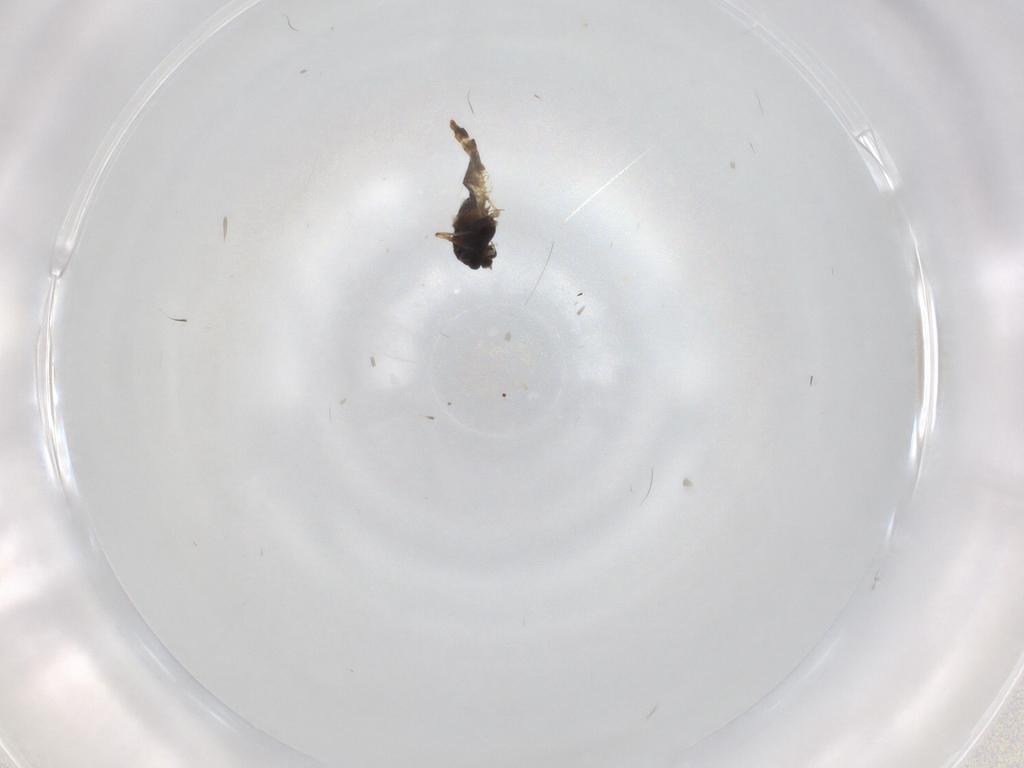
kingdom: Animalia
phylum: Arthropoda
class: Insecta
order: Diptera
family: Chironomidae
